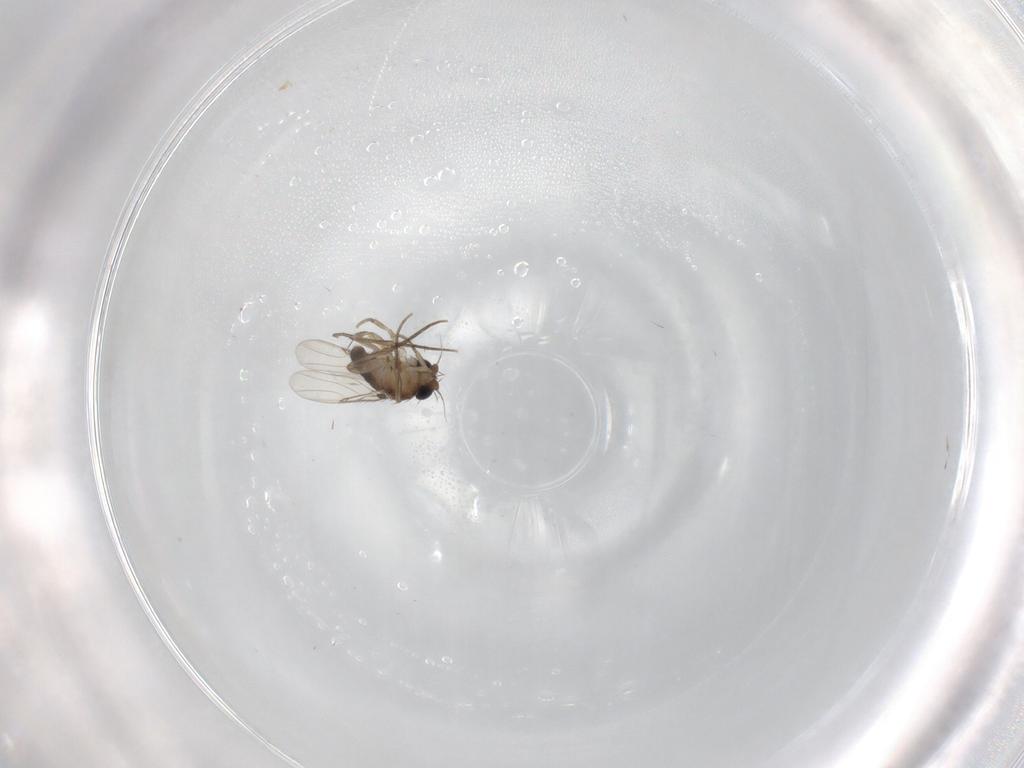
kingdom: Animalia
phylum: Arthropoda
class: Insecta
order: Diptera
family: Phoridae
